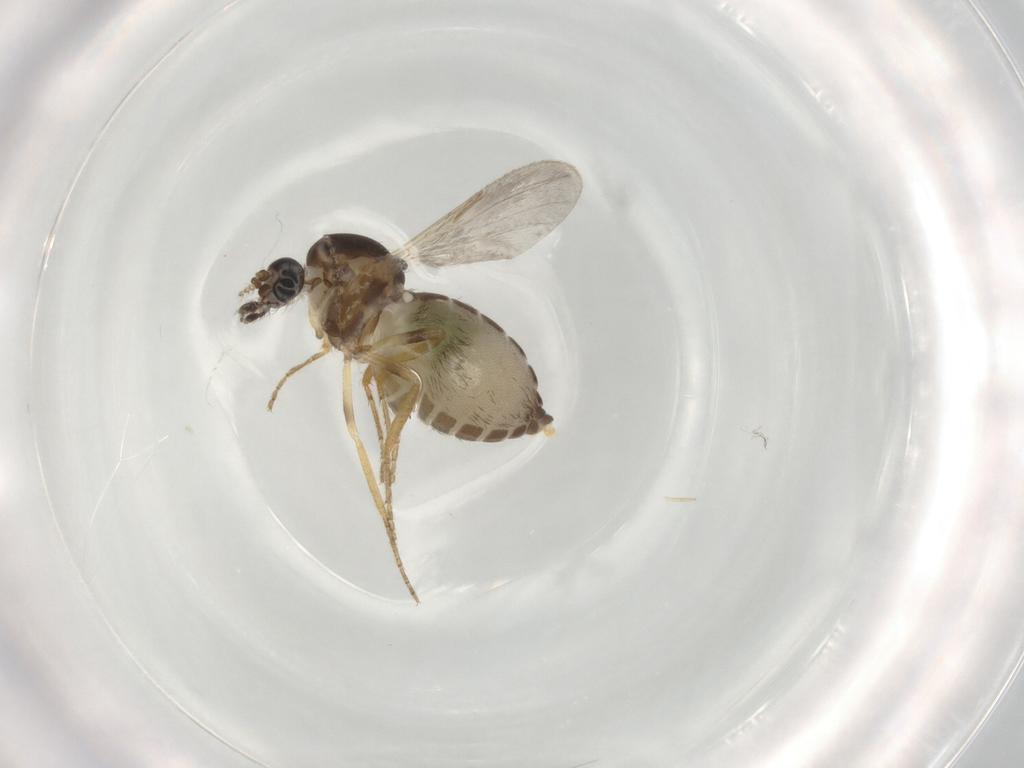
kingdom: Animalia
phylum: Arthropoda
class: Insecta
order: Diptera
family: Ceratopogonidae
